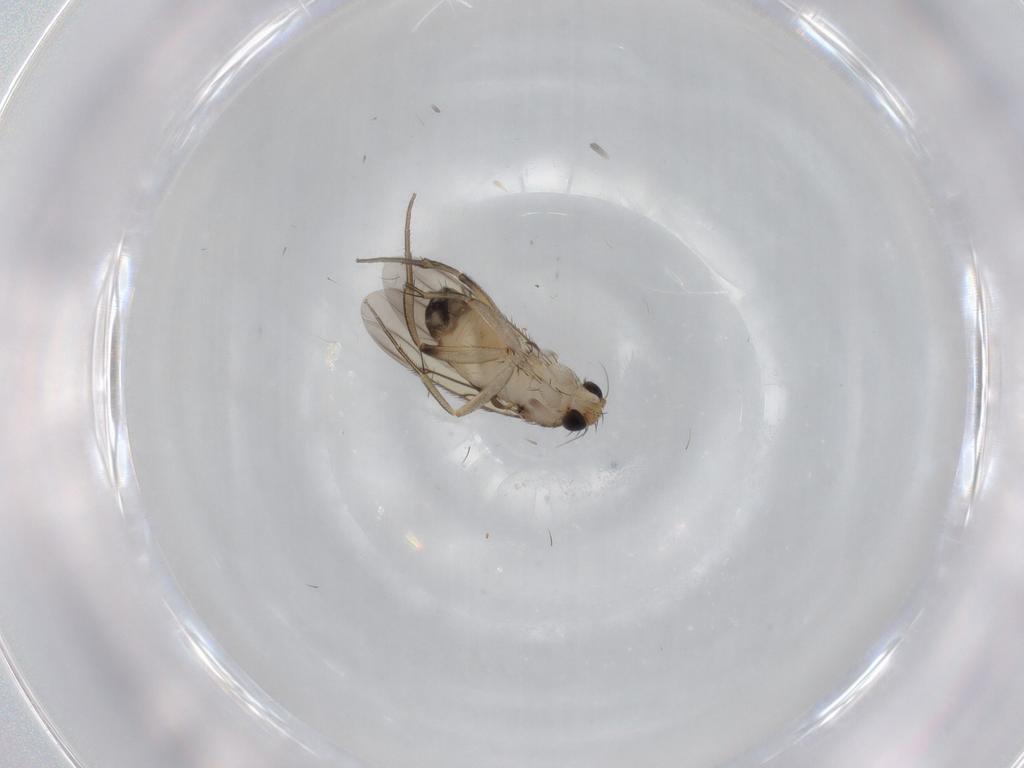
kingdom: Animalia
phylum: Arthropoda
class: Insecta
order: Diptera
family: Phoridae
